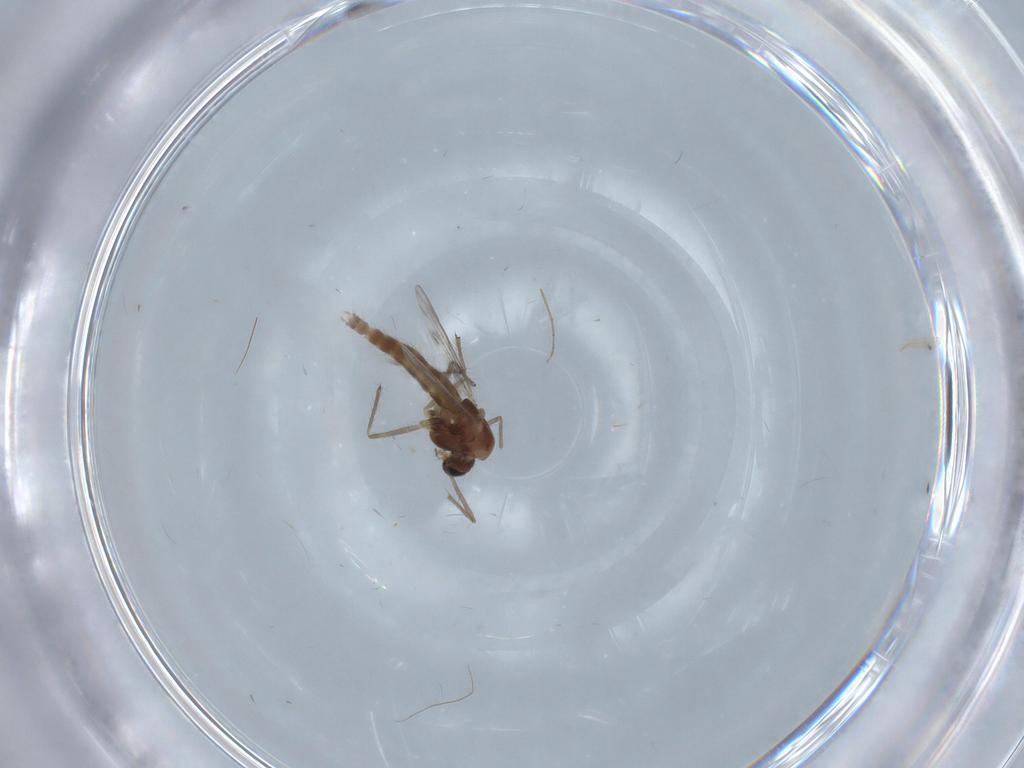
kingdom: Animalia
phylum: Arthropoda
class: Insecta
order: Diptera
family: Chironomidae
